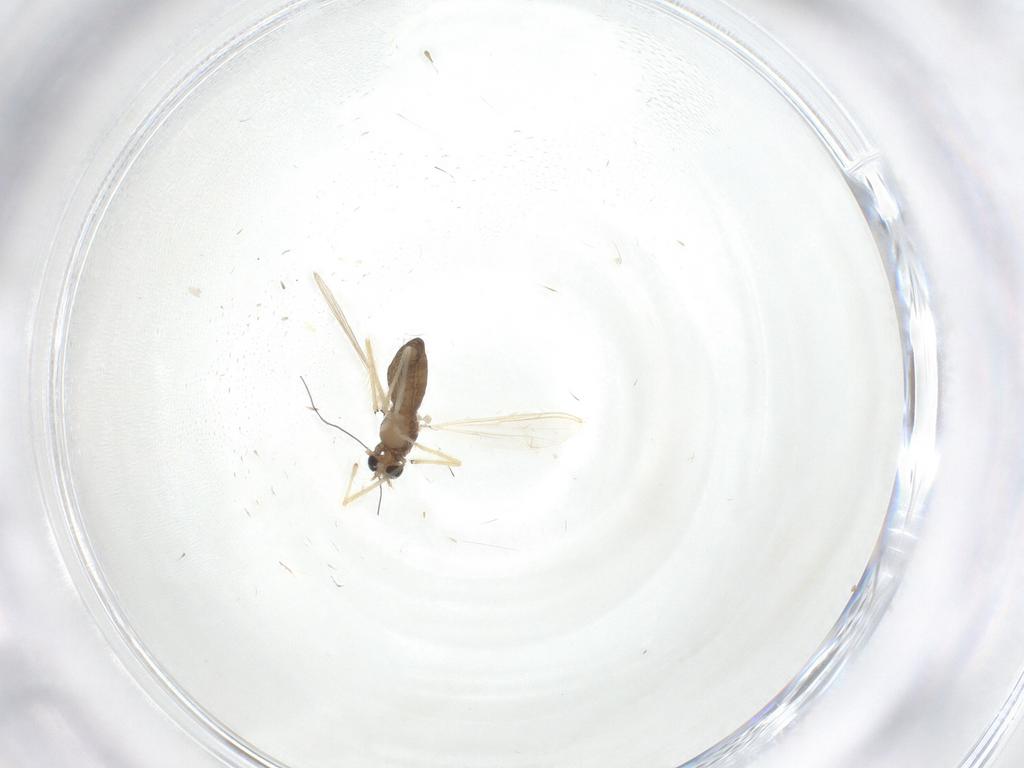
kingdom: Animalia
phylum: Arthropoda
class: Insecta
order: Diptera
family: Chironomidae
